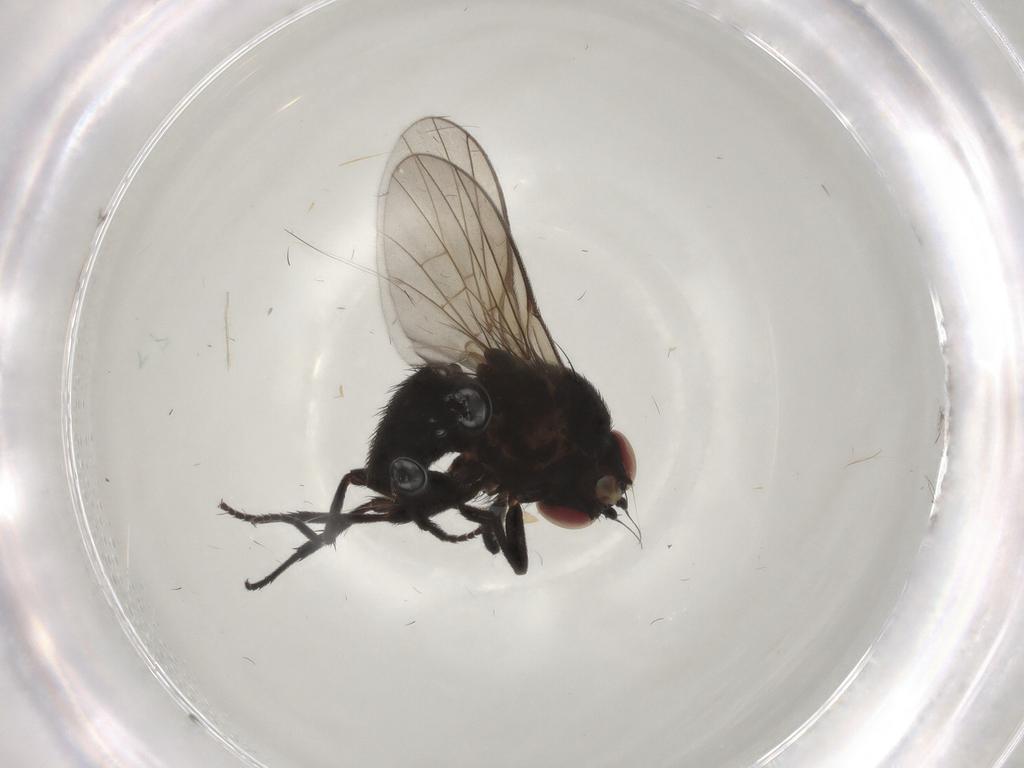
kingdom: Animalia
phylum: Arthropoda
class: Insecta
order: Diptera
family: Agromyzidae
